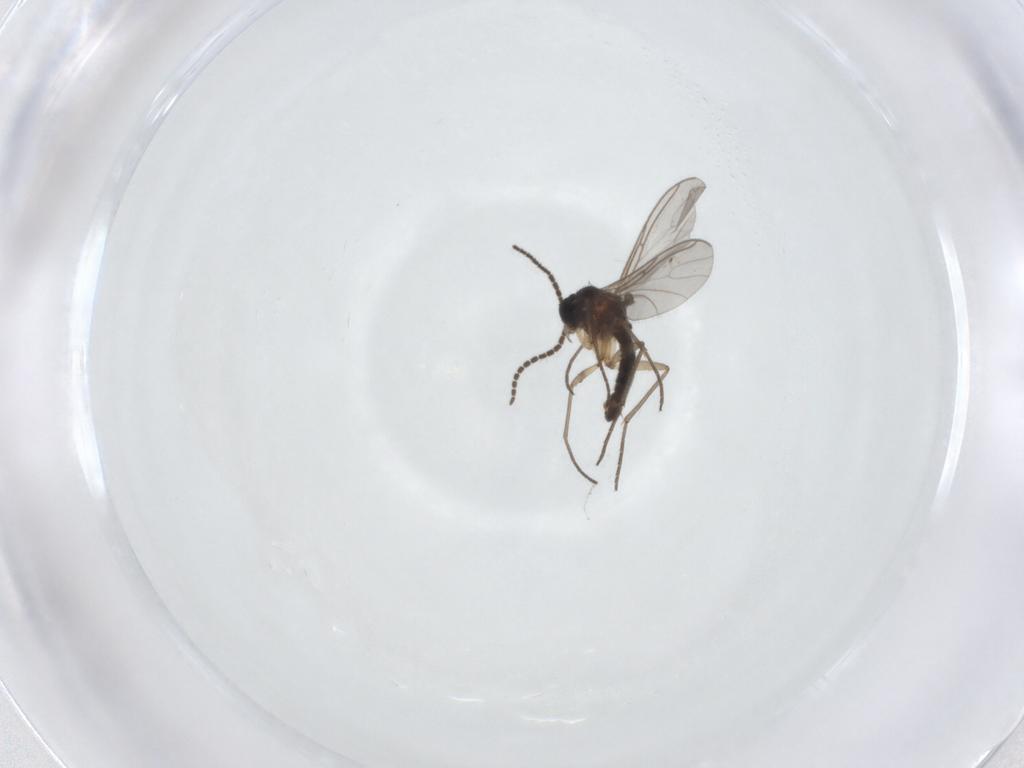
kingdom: Animalia
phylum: Arthropoda
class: Insecta
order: Diptera
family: Sciaridae
